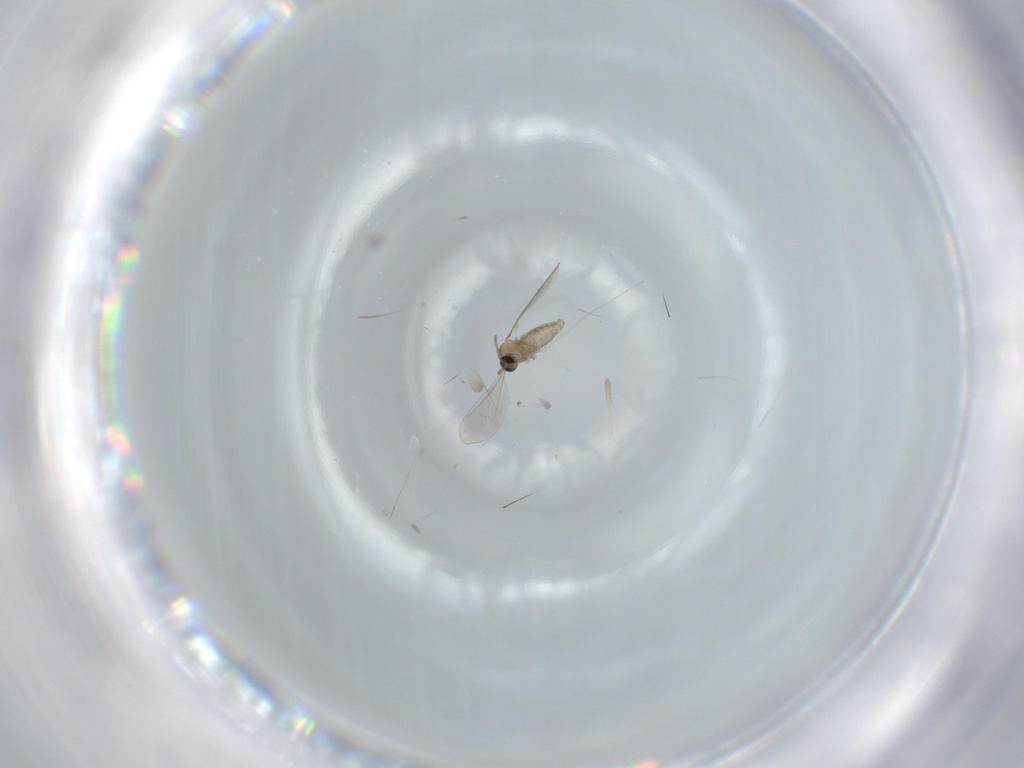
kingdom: Animalia
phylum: Arthropoda
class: Insecta
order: Diptera
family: Cecidomyiidae
